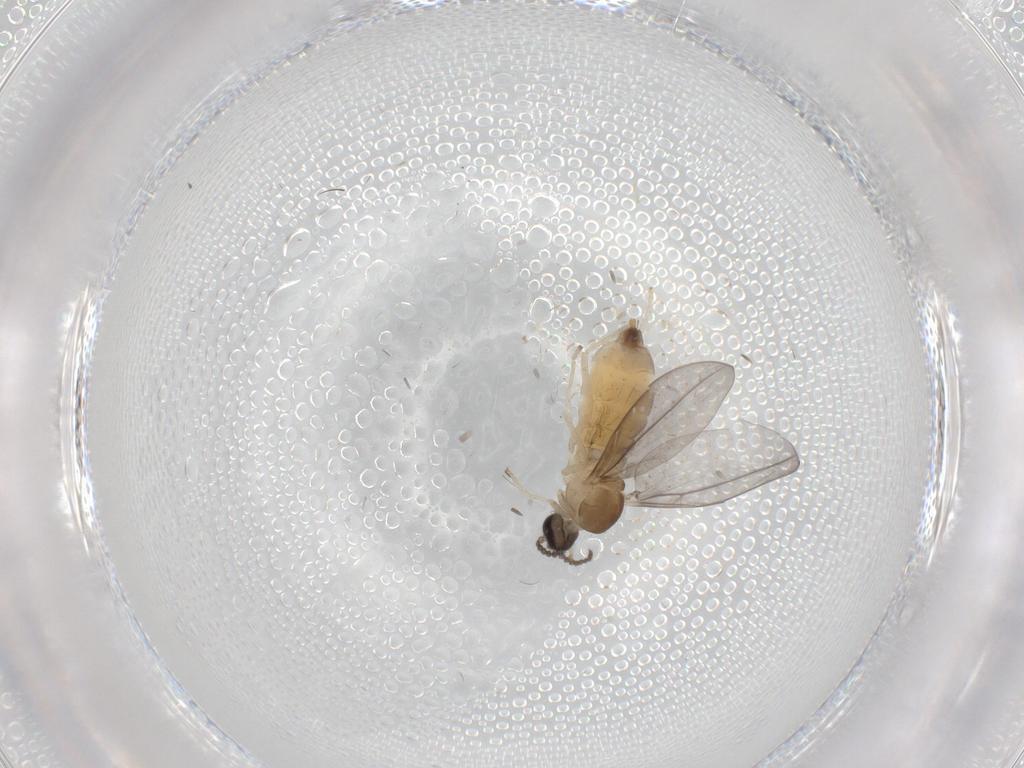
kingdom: Animalia
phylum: Arthropoda
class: Insecta
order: Diptera
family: Cecidomyiidae
